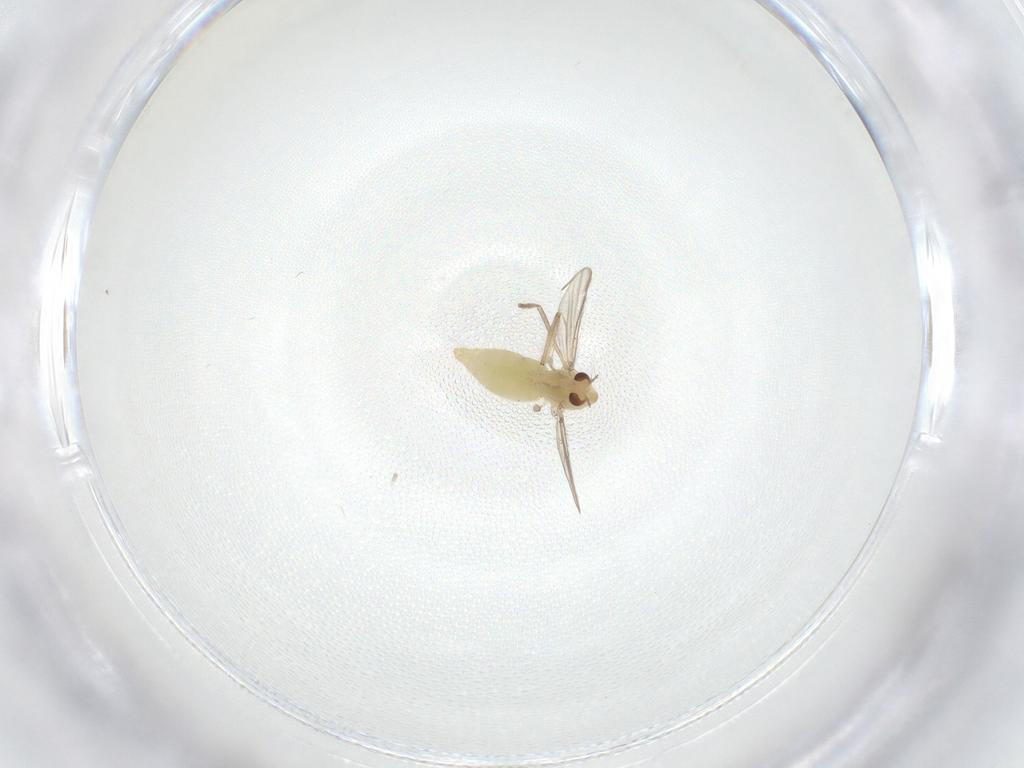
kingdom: Animalia
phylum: Arthropoda
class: Insecta
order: Diptera
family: Chironomidae
